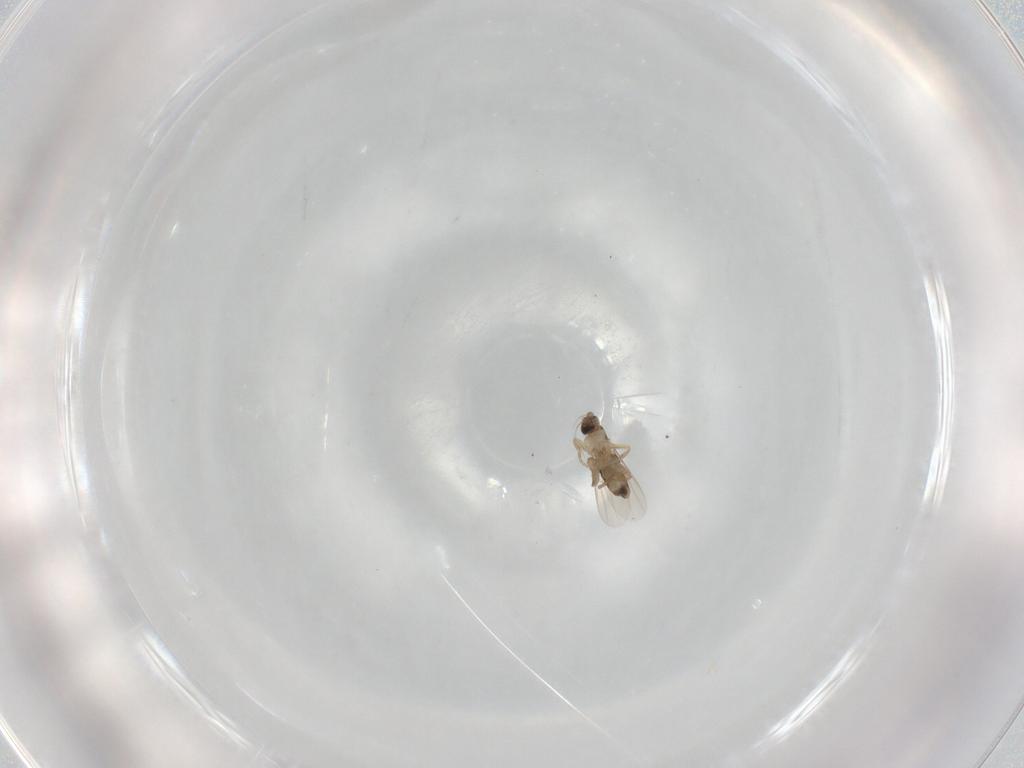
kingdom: Animalia
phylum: Arthropoda
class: Insecta
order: Diptera
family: Phoridae
